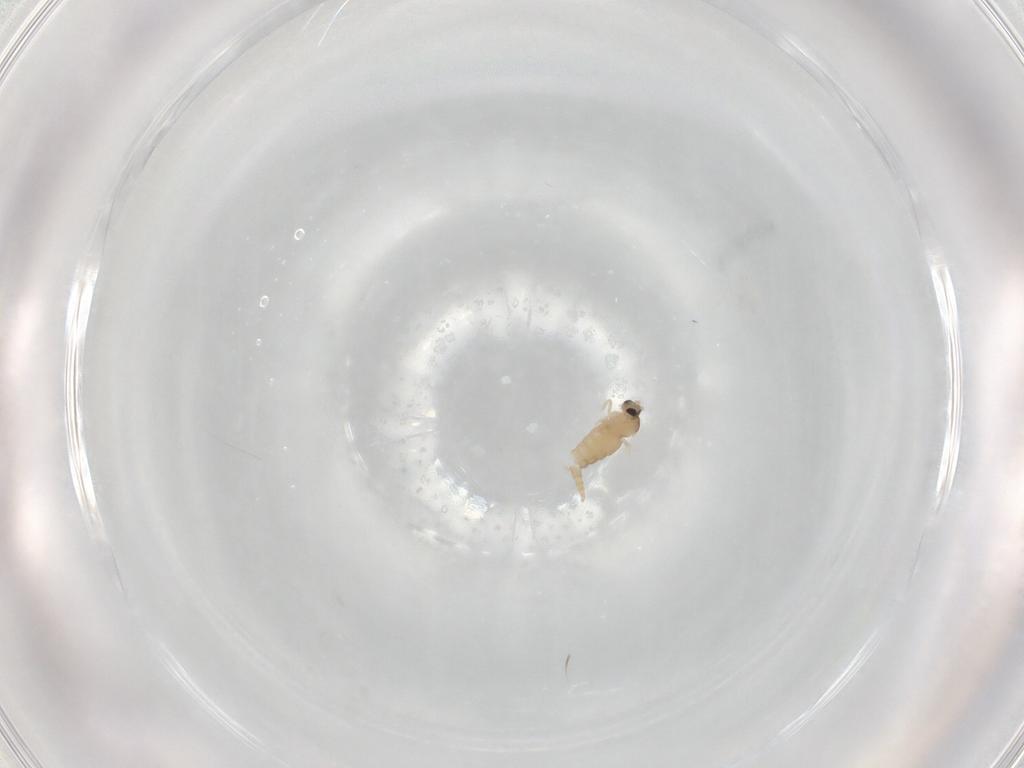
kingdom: Animalia
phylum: Arthropoda
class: Insecta
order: Diptera
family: Cecidomyiidae
